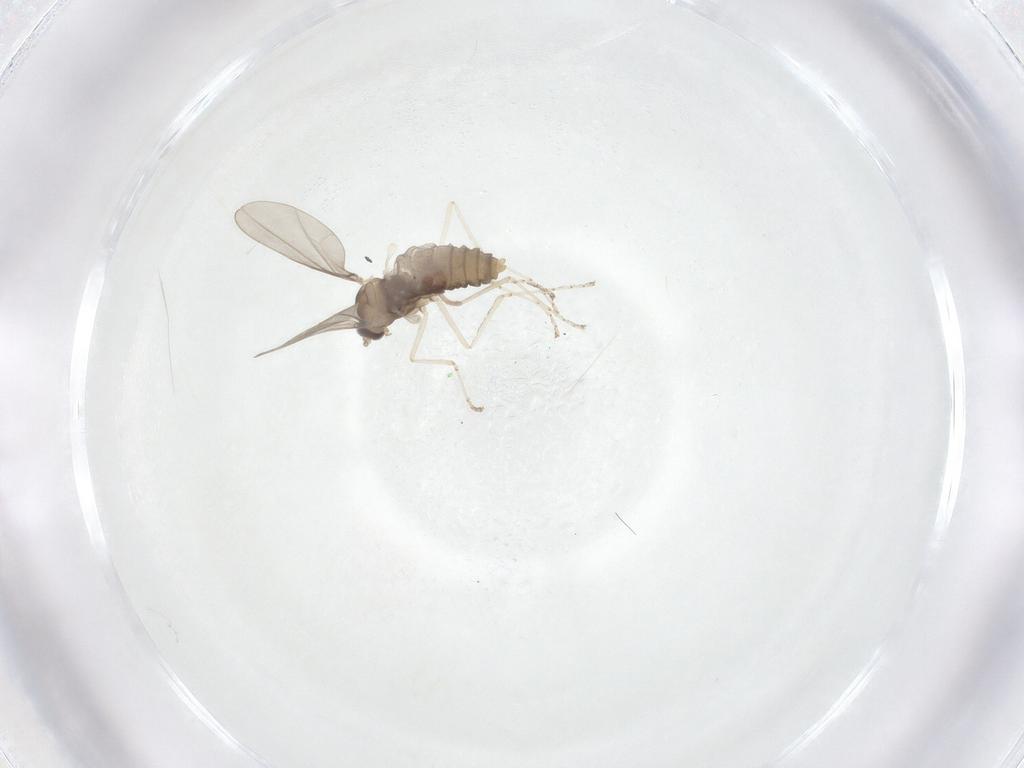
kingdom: Animalia
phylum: Arthropoda
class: Insecta
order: Diptera
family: Cecidomyiidae
